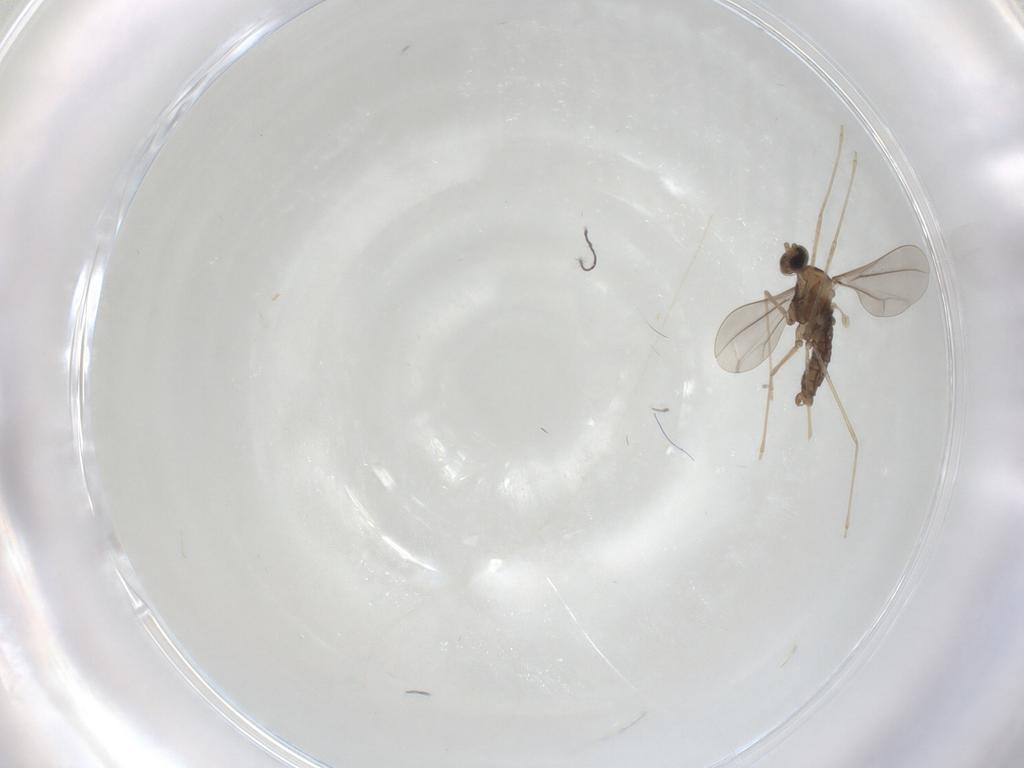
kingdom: Animalia
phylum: Arthropoda
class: Insecta
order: Diptera
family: Cecidomyiidae
